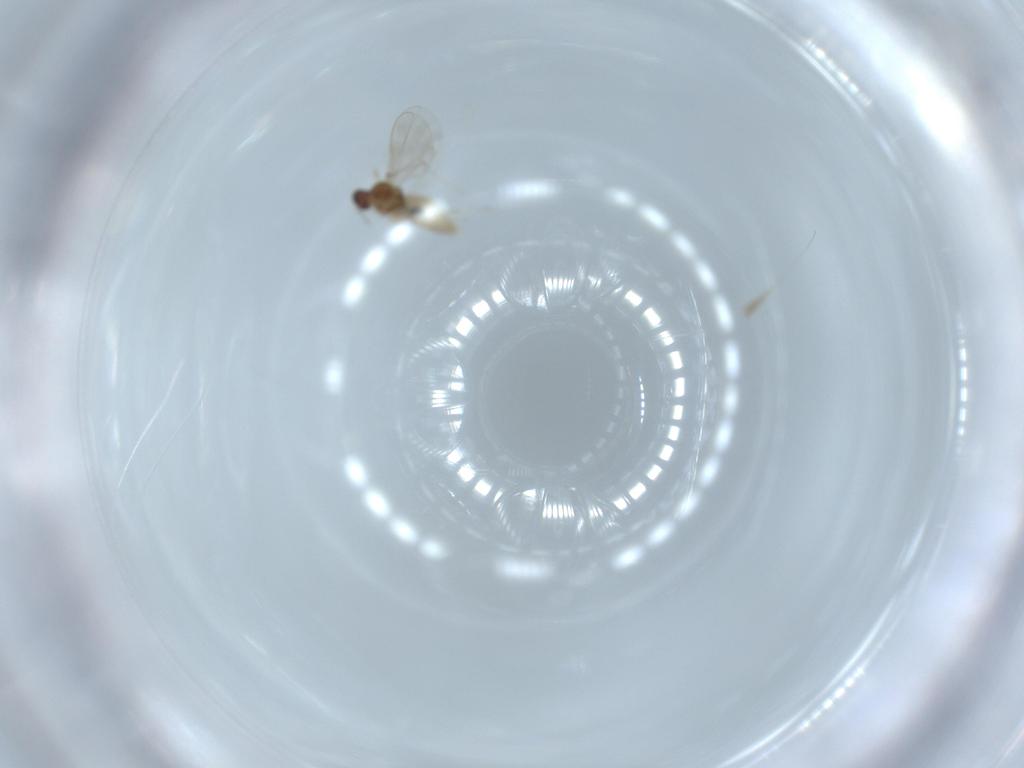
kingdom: Animalia
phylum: Arthropoda
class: Insecta
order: Diptera
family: Cecidomyiidae
